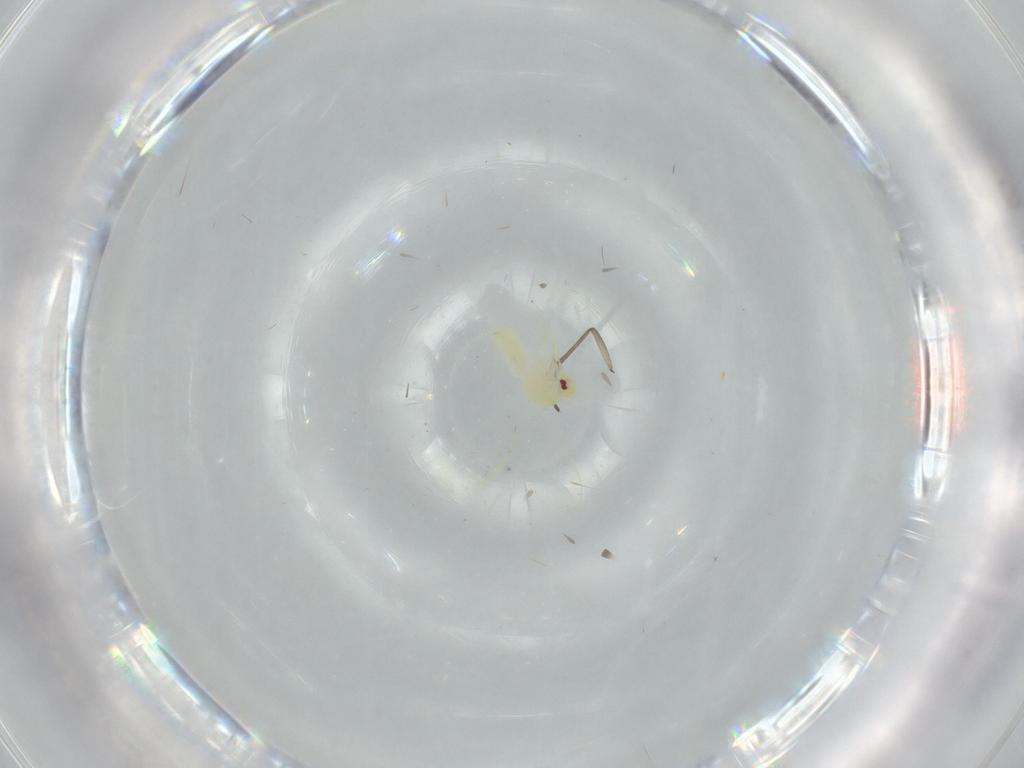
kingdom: Animalia
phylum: Arthropoda
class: Insecta
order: Hemiptera
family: Aleyrodidae
